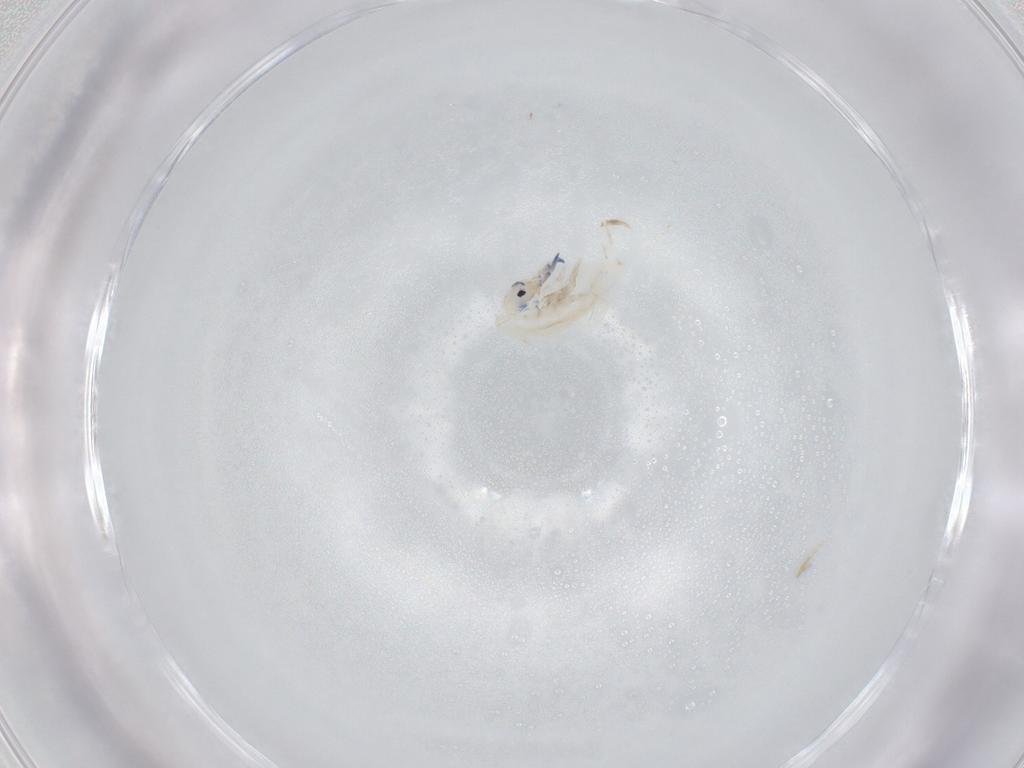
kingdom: Animalia
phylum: Arthropoda
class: Collembola
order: Entomobryomorpha
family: Entomobryidae
